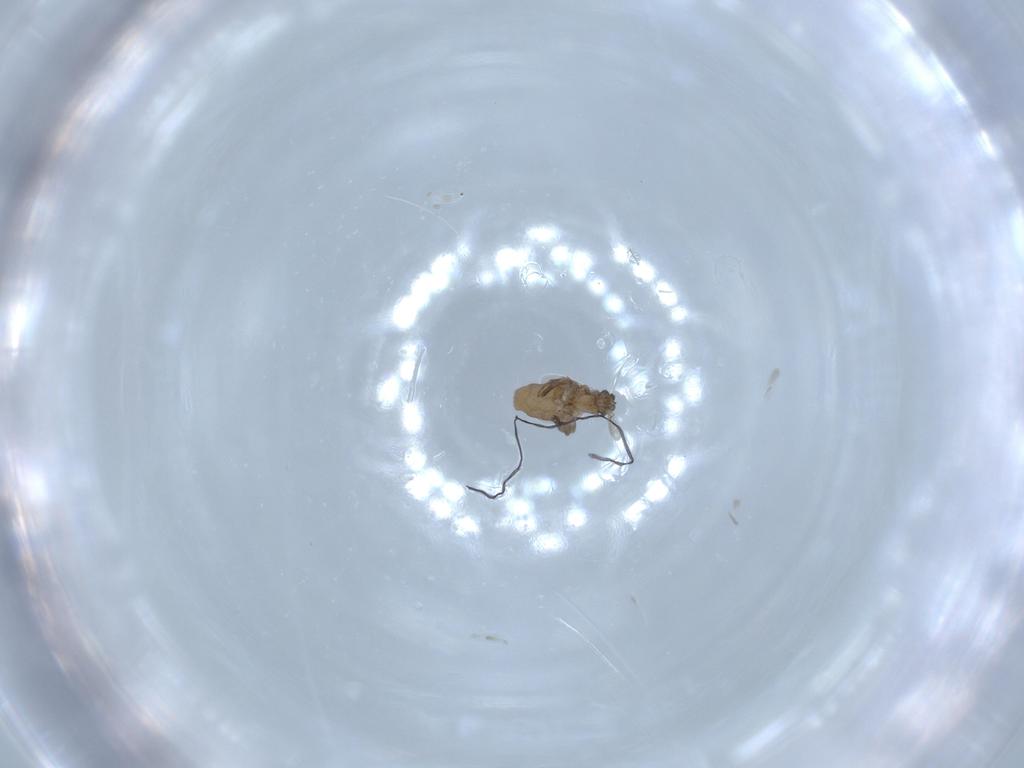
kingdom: Animalia
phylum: Arthropoda
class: Insecta
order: Diptera
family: Phoridae
